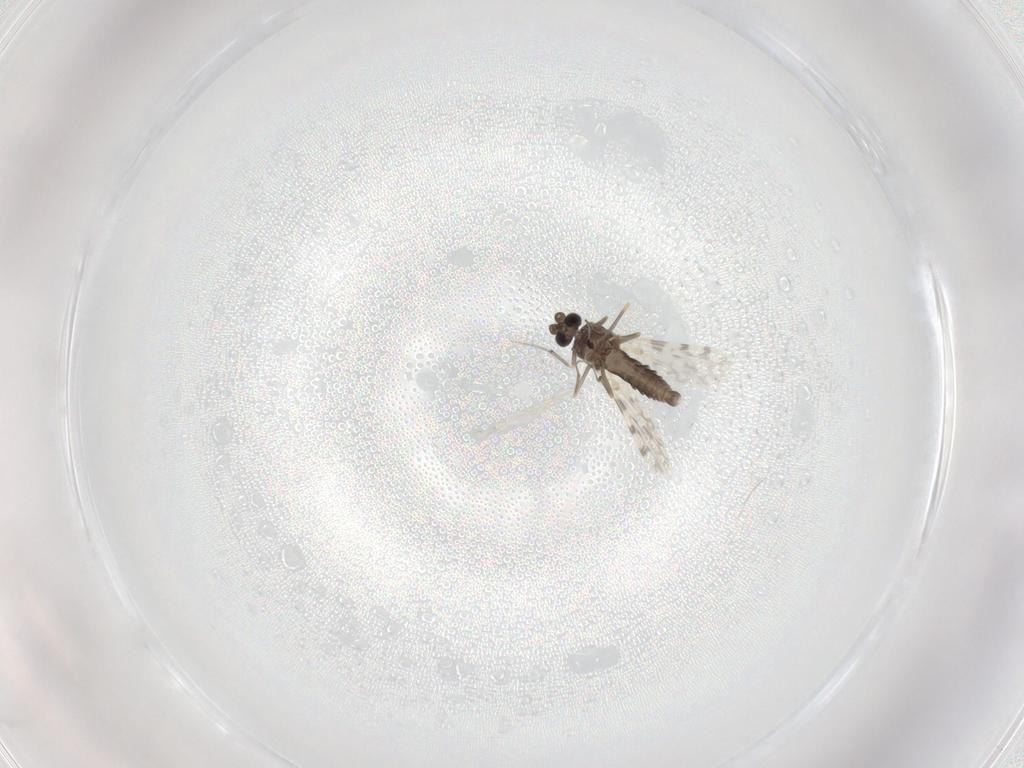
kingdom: Animalia
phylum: Arthropoda
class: Insecta
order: Diptera
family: Ceratopogonidae
